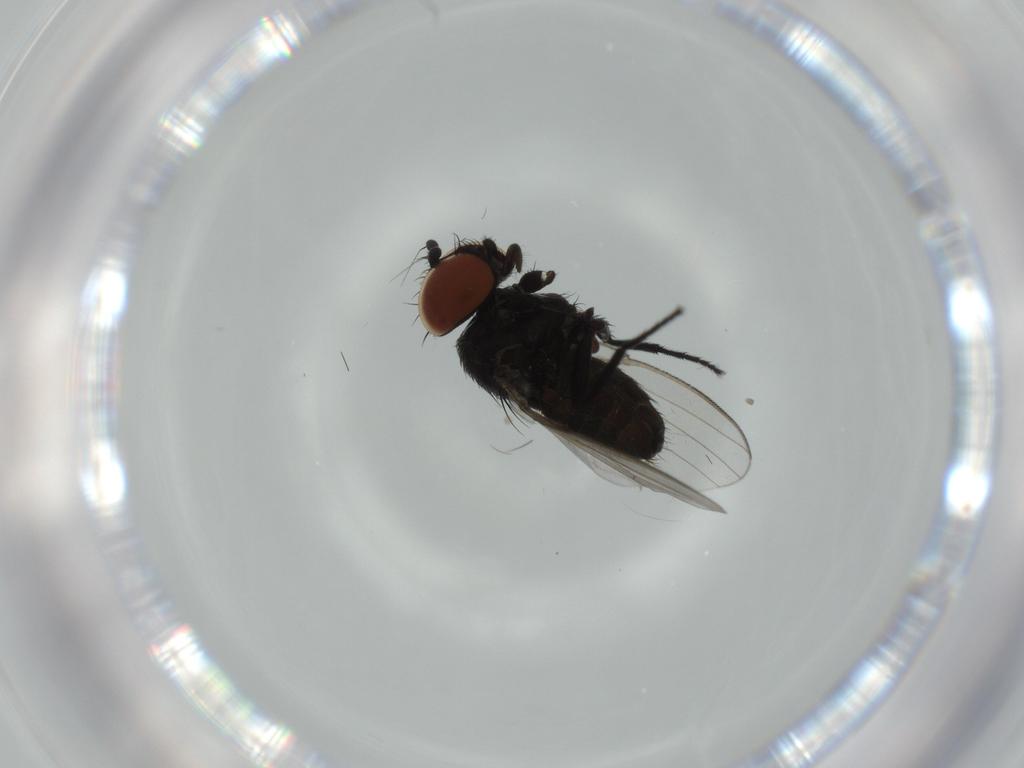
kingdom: Animalia
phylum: Arthropoda
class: Insecta
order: Diptera
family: Milichiidae
